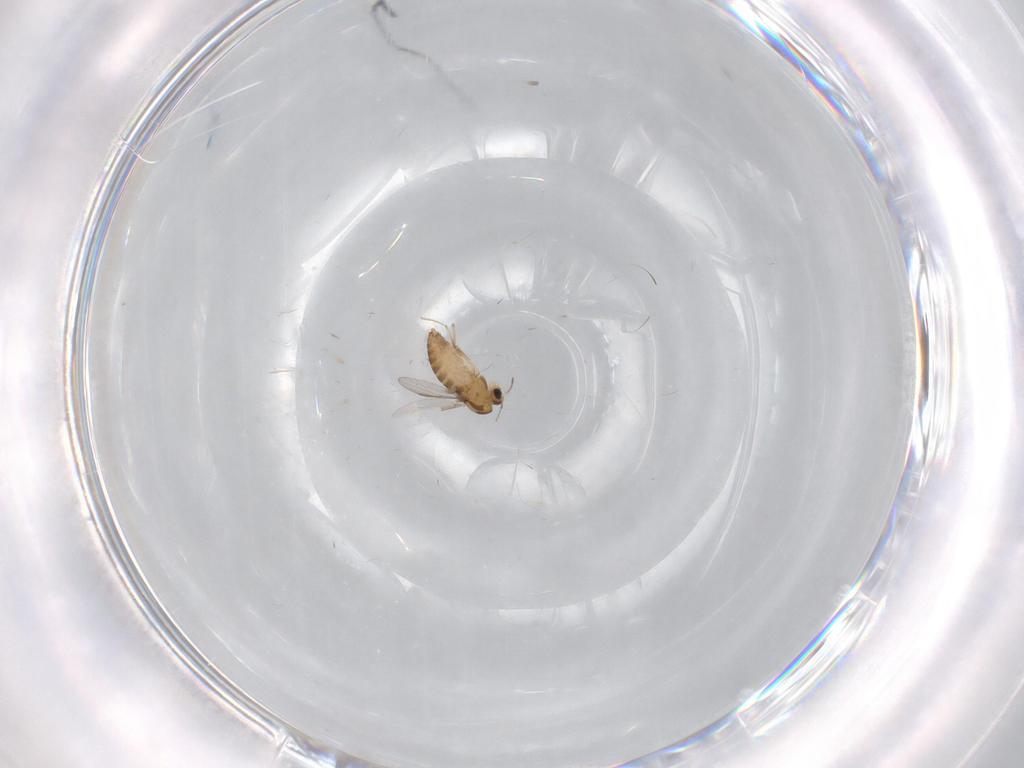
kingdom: Animalia
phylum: Arthropoda
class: Insecta
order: Diptera
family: Chironomidae
